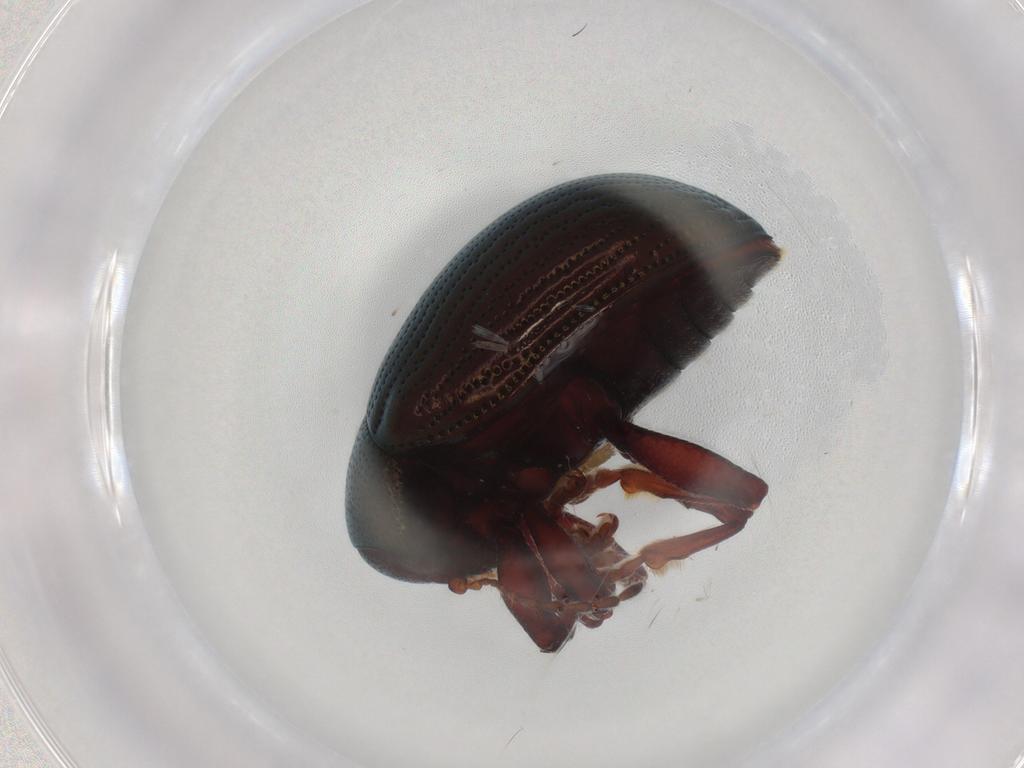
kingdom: Animalia
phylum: Arthropoda
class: Insecta
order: Coleoptera
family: Chrysomelidae
